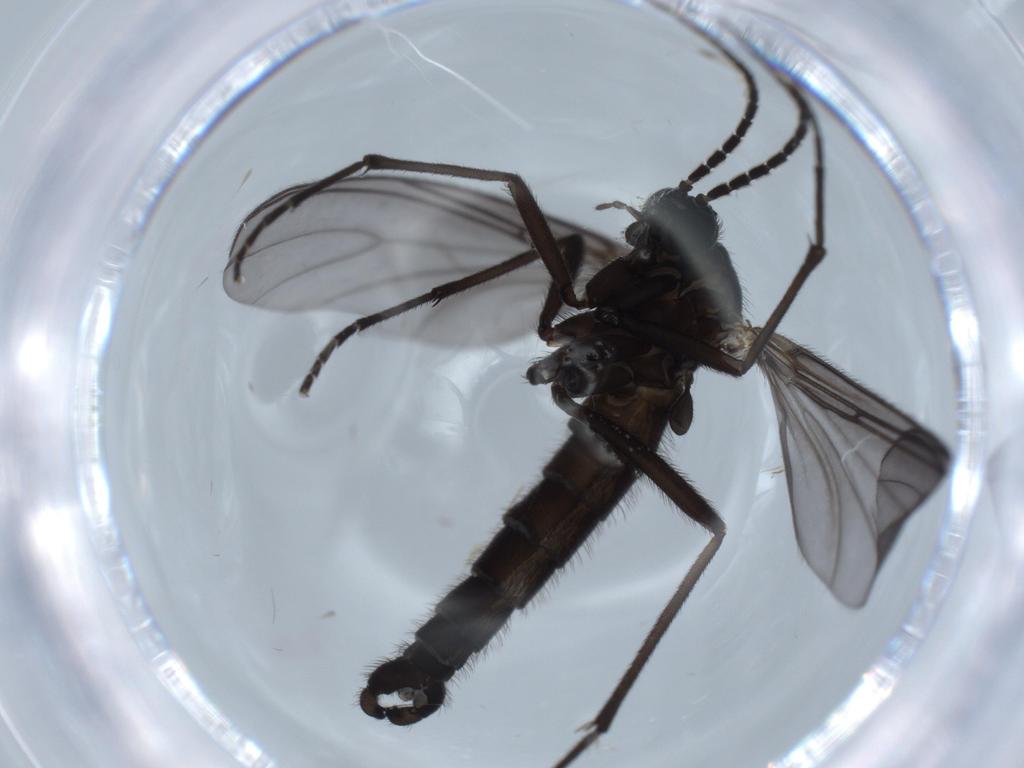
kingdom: Animalia
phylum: Arthropoda
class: Insecta
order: Diptera
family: Sciaridae
